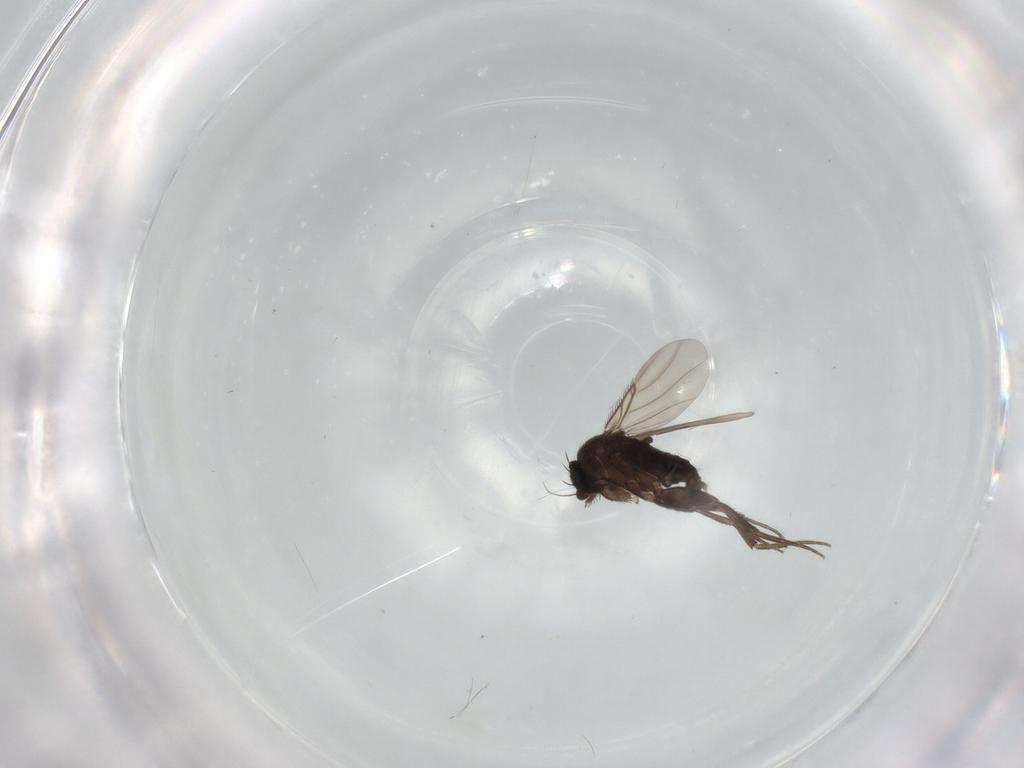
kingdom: Animalia
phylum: Arthropoda
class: Insecta
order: Diptera
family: Phoridae
